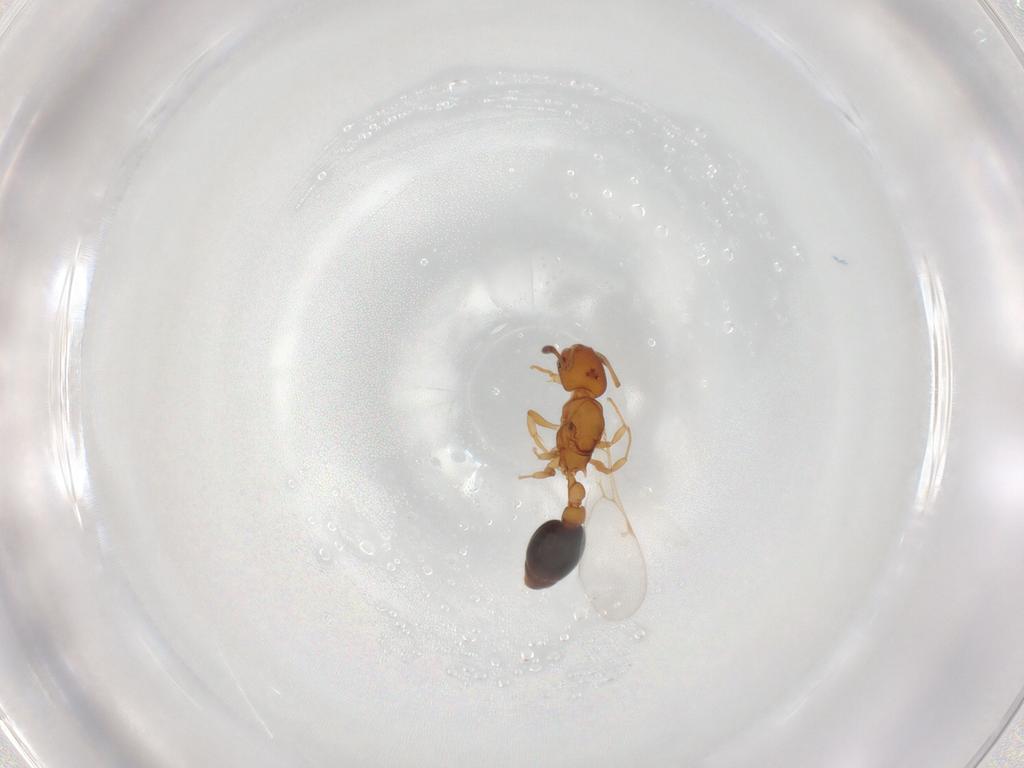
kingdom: Animalia
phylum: Arthropoda
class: Insecta
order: Hymenoptera
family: Formicidae
